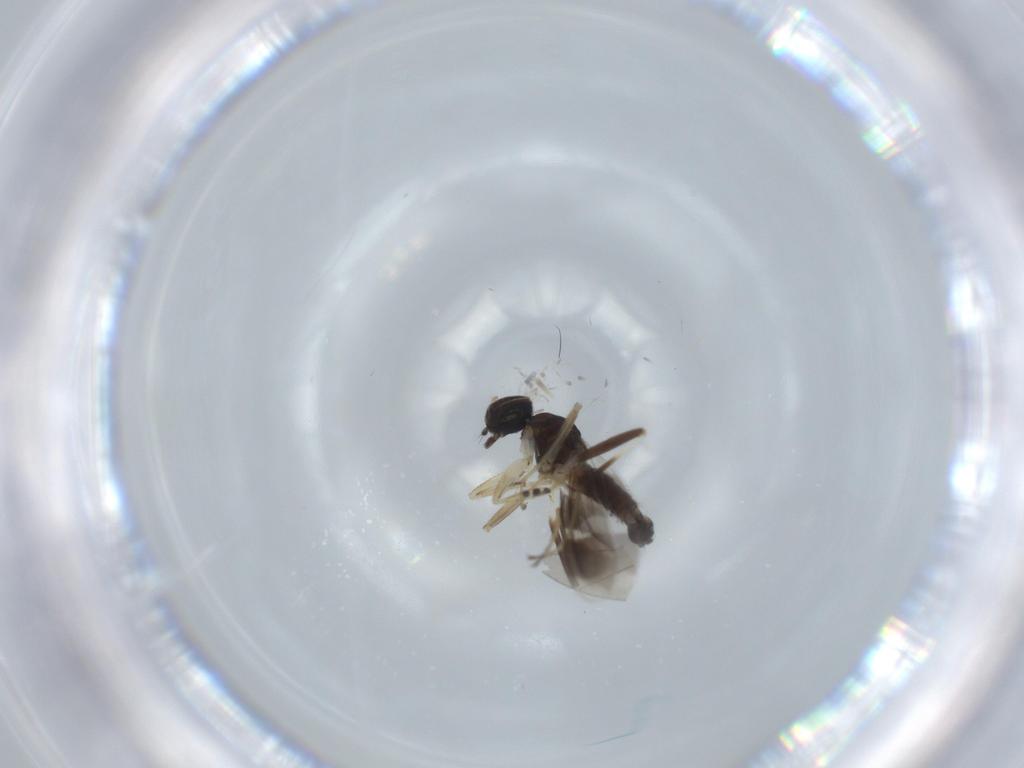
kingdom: Animalia
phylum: Arthropoda
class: Insecta
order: Diptera
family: Hybotidae
